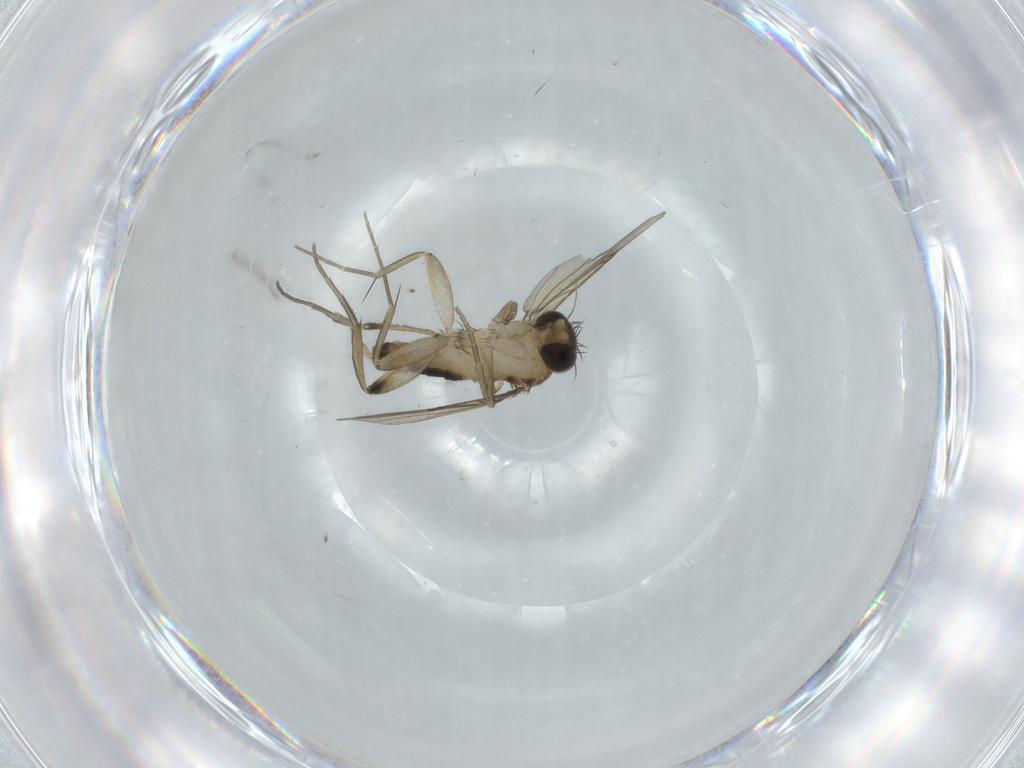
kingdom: Animalia
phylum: Arthropoda
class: Insecta
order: Diptera
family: Phoridae
